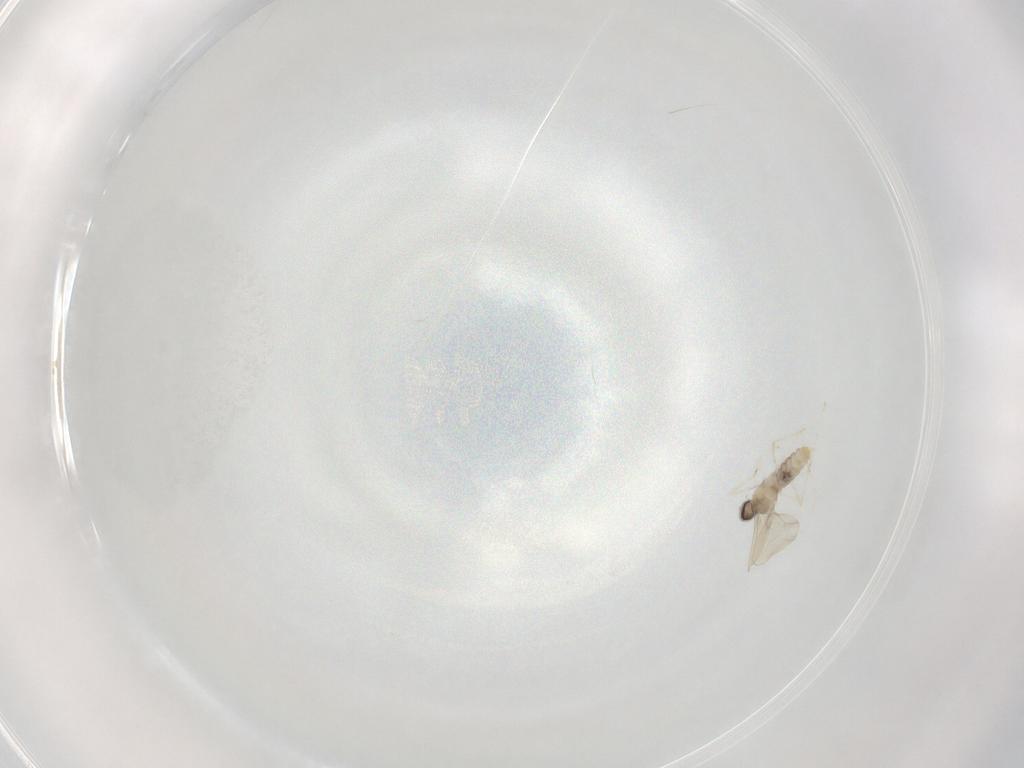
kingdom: Animalia
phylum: Arthropoda
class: Insecta
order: Diptera
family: Cecidomyiidae
